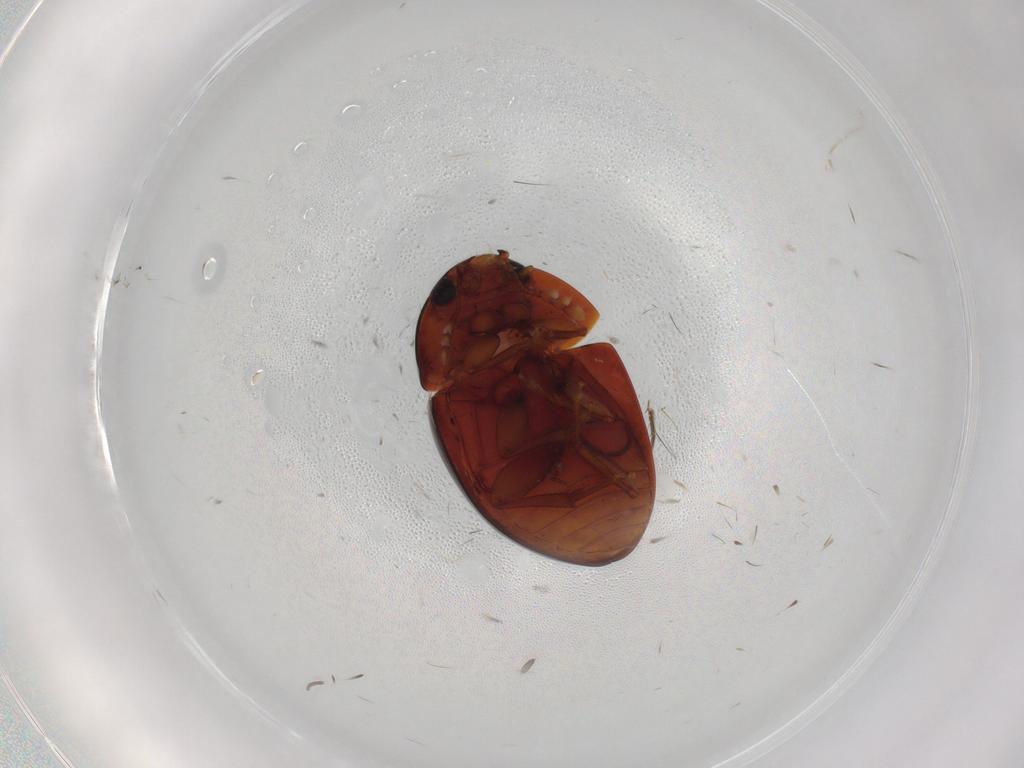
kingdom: Animalia
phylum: Arthropoda
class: Insecta
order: Coleoptera
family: Phalacridae
